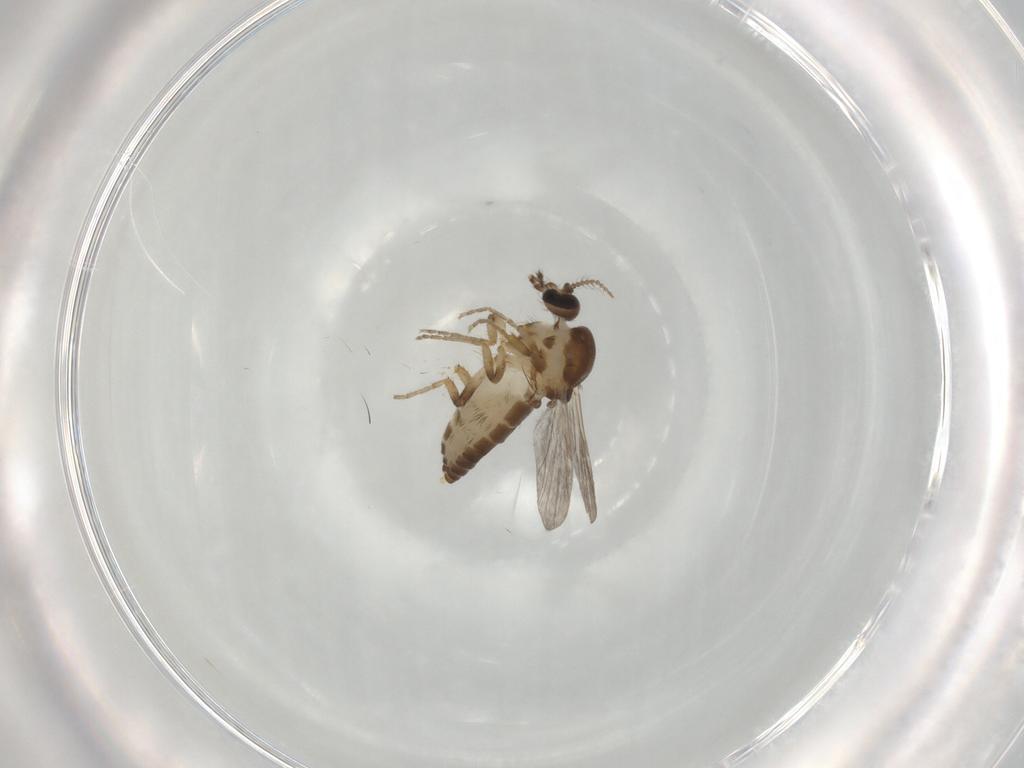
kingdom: Animalia
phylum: Arthropoda
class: Insecta
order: Diptera
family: Ceratopogonidae
